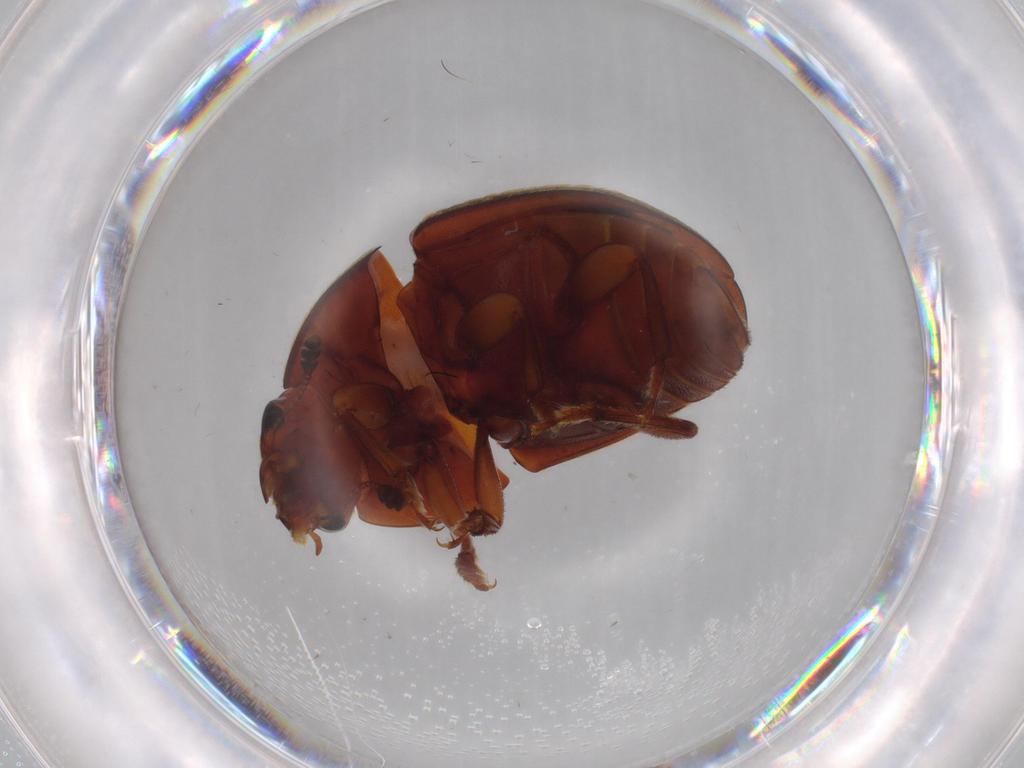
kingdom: Animalia
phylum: Arthropoda
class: Insecta
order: Coleoptera
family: Nitidulidae
